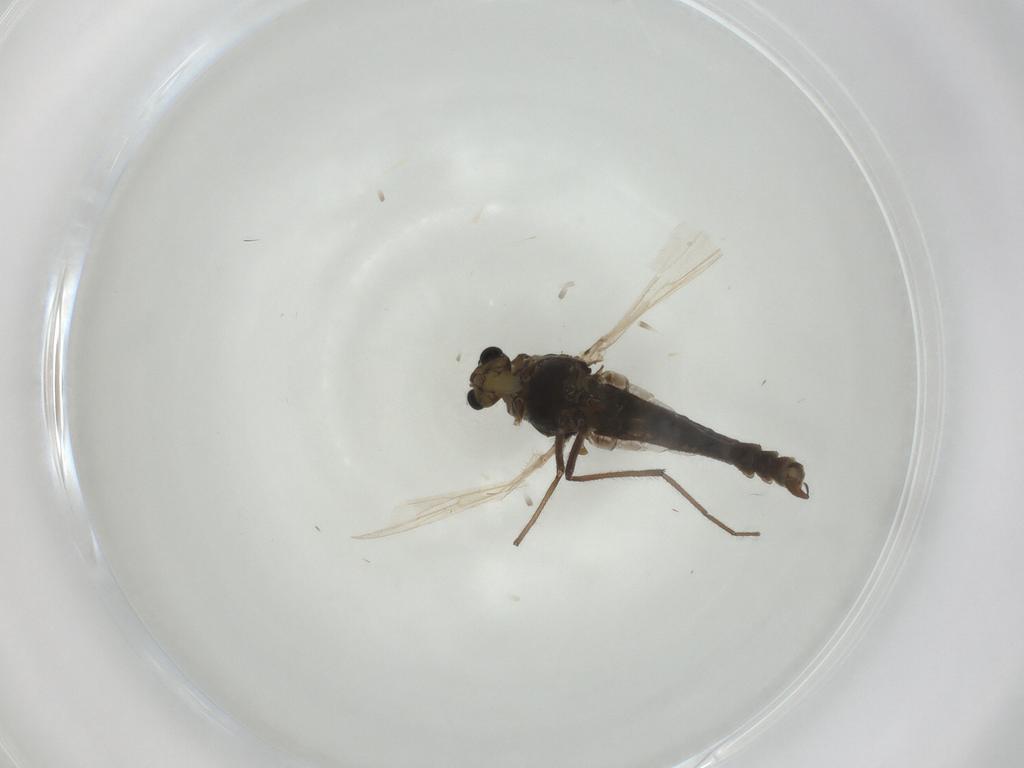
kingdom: Animalia
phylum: Arthropoda
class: Insecta
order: Diptera
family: Chironomidae
